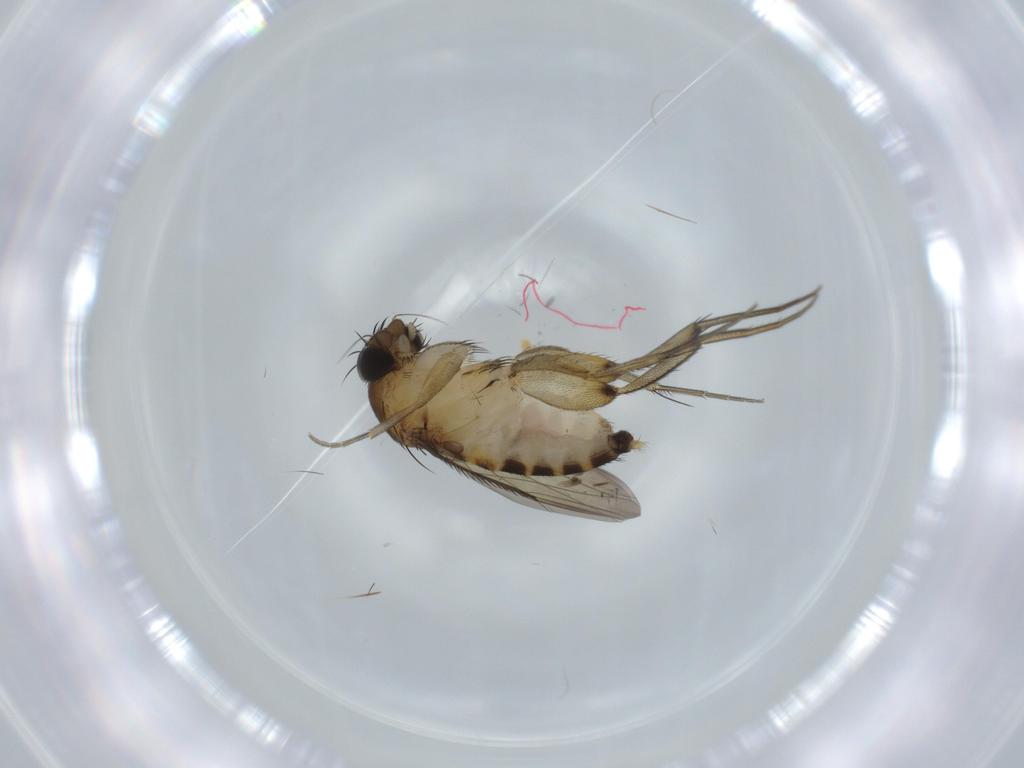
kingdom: Animalia
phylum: Arthropoda
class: Insecta
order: Diptera
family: Phoridae
